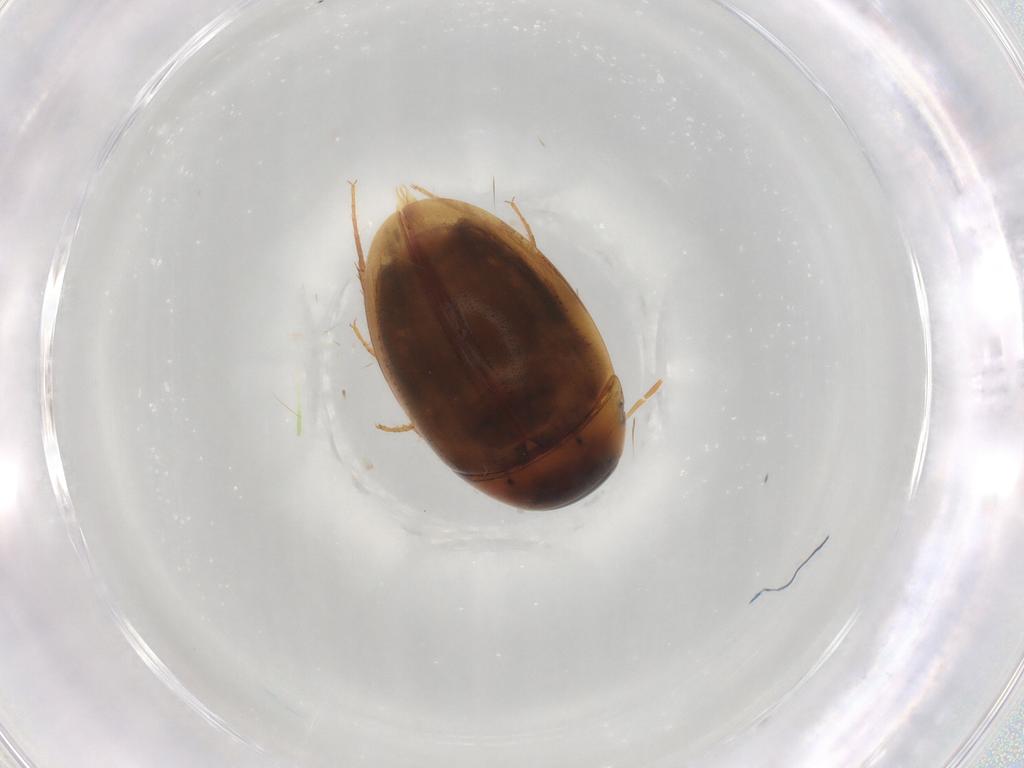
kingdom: Animalia
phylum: Arthropoda
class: Insecta
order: Coleoptera
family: Hydrophilidae
